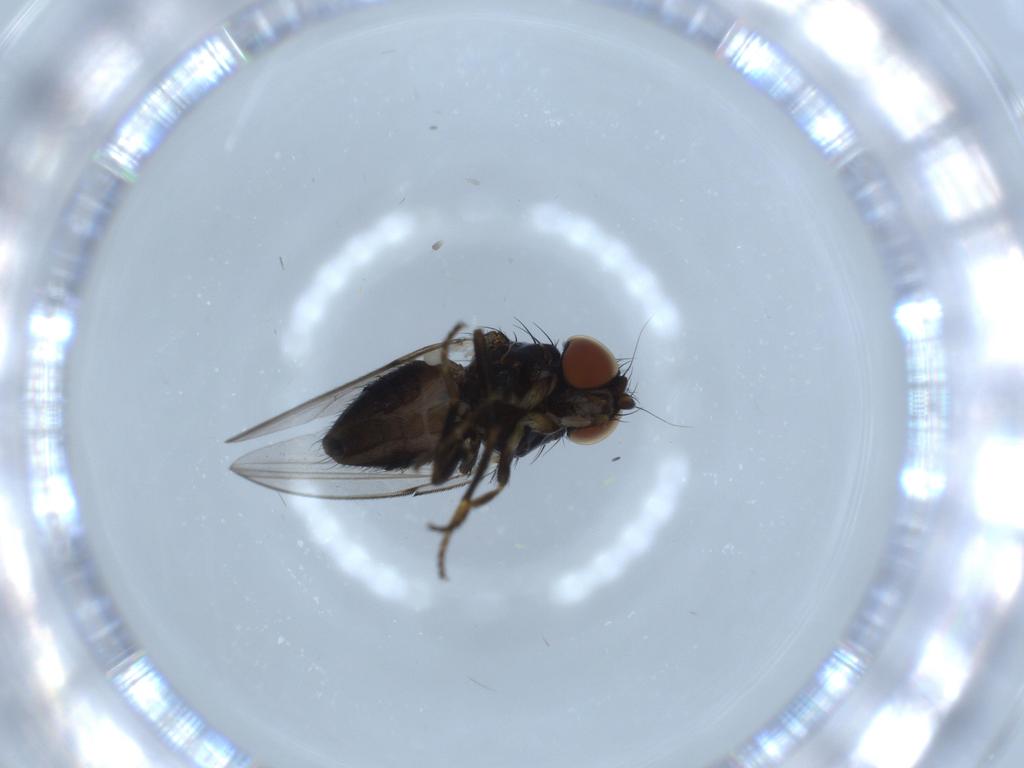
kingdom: Animalia
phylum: Arthropoda
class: Insecta
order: Diptera
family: Milichiidae
